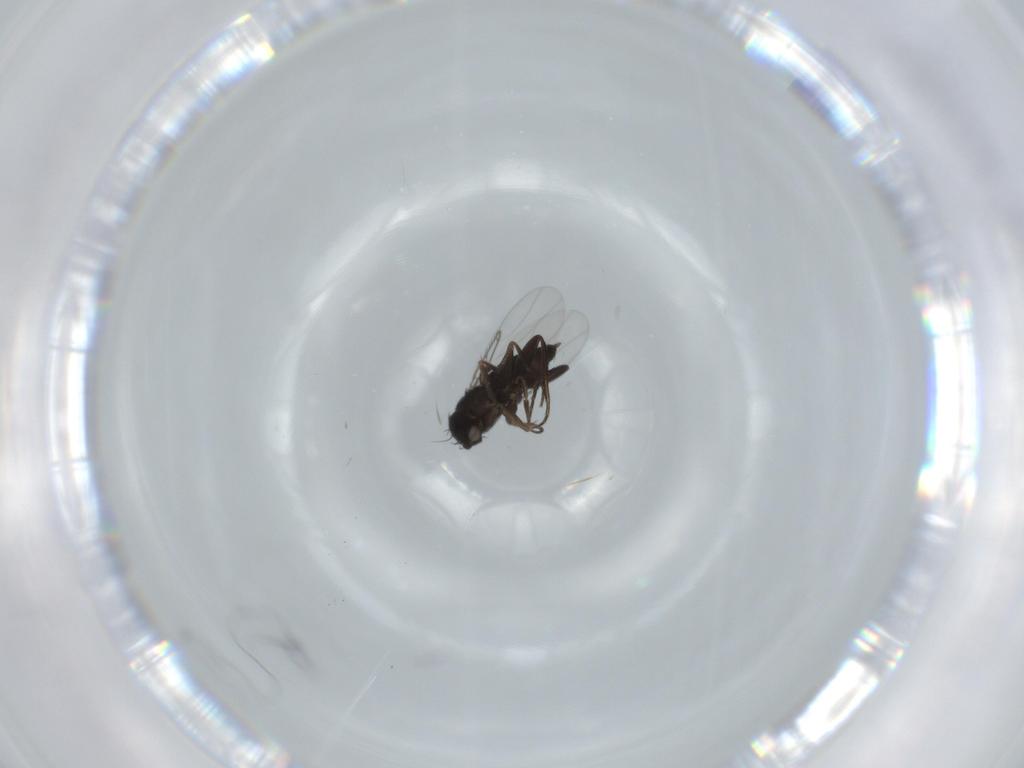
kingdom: Animalia
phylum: Arthropoda
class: Insecta
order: Diptera
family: Phoridae
